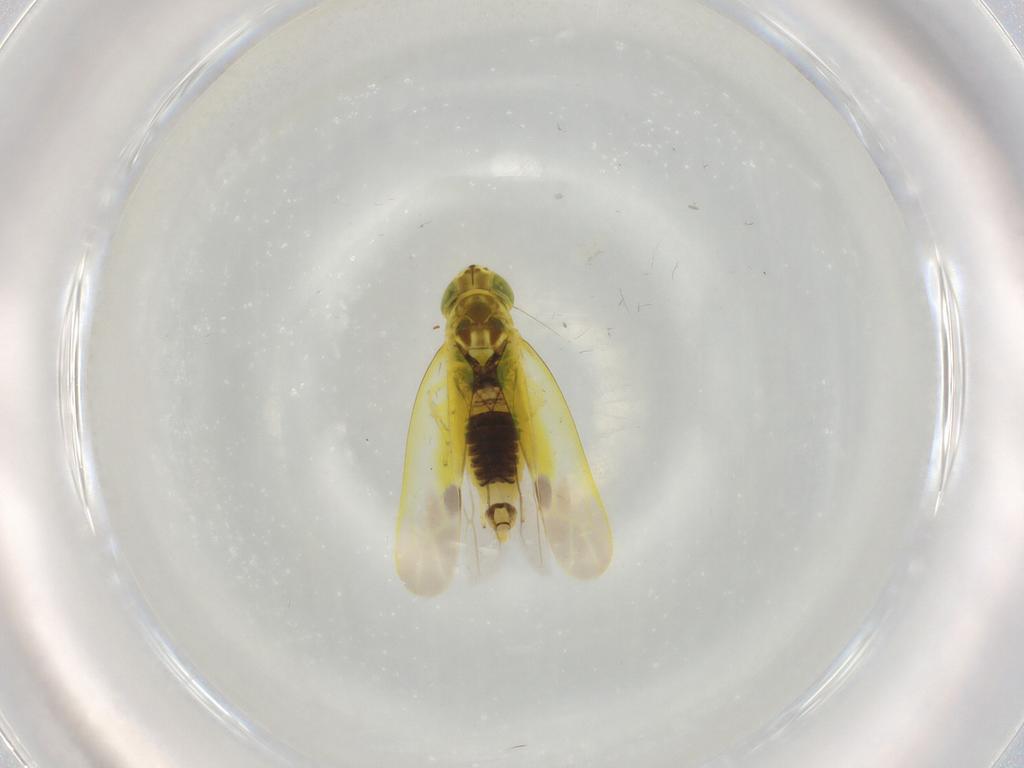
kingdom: Animalia
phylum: Arthropoda
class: Insecta
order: Hemiptera
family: Cicadellidae
